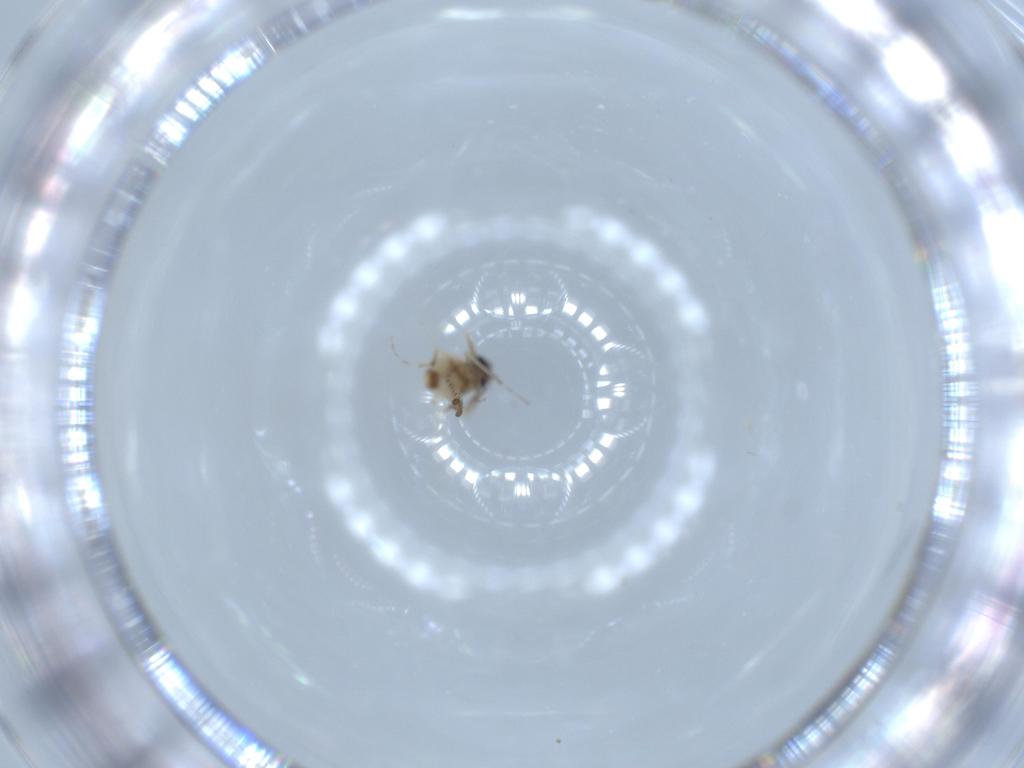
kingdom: Animalia
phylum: Arthropoda
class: Insecta
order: Diptera
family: Ceratopogonidae
